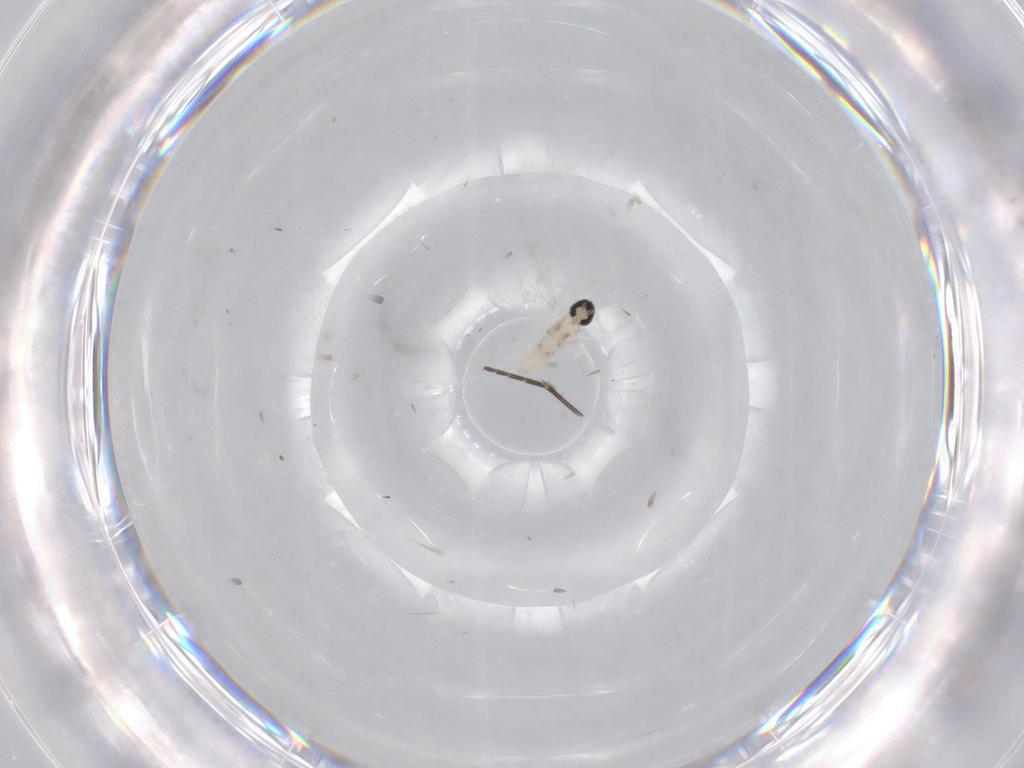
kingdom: Animalia
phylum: Arthropoda
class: Insecta
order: Diptera
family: Cecidomyiidae
